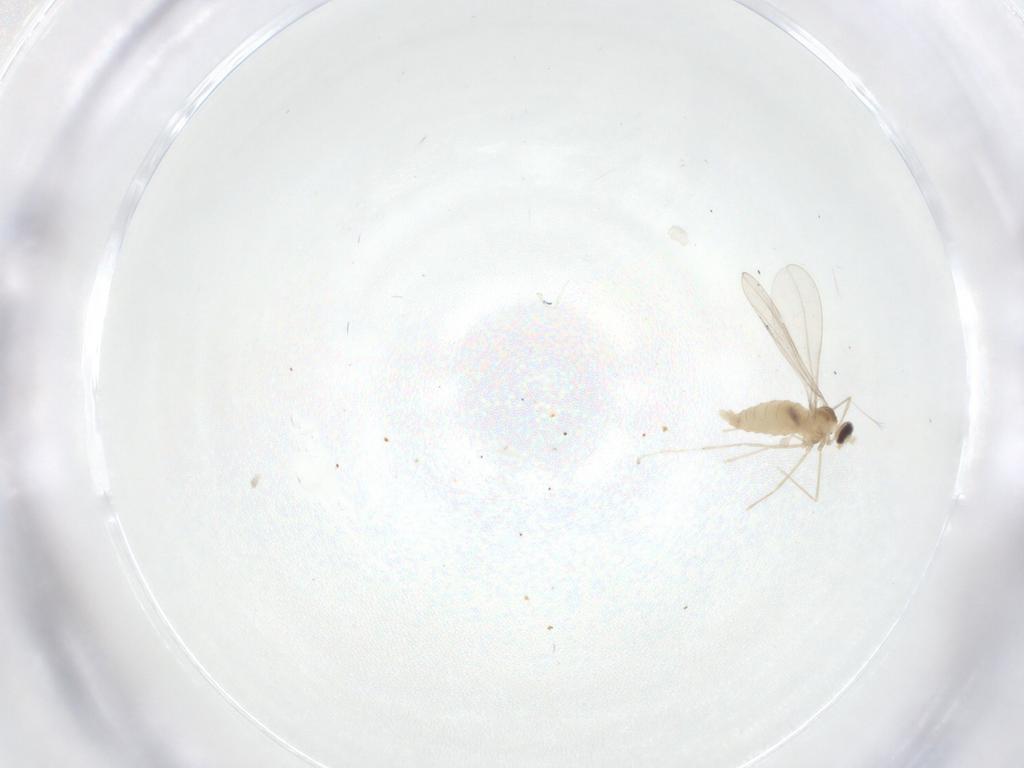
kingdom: Animalia
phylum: Arthropoda
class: Insecta
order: Diptera
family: Cecidomyiidae
